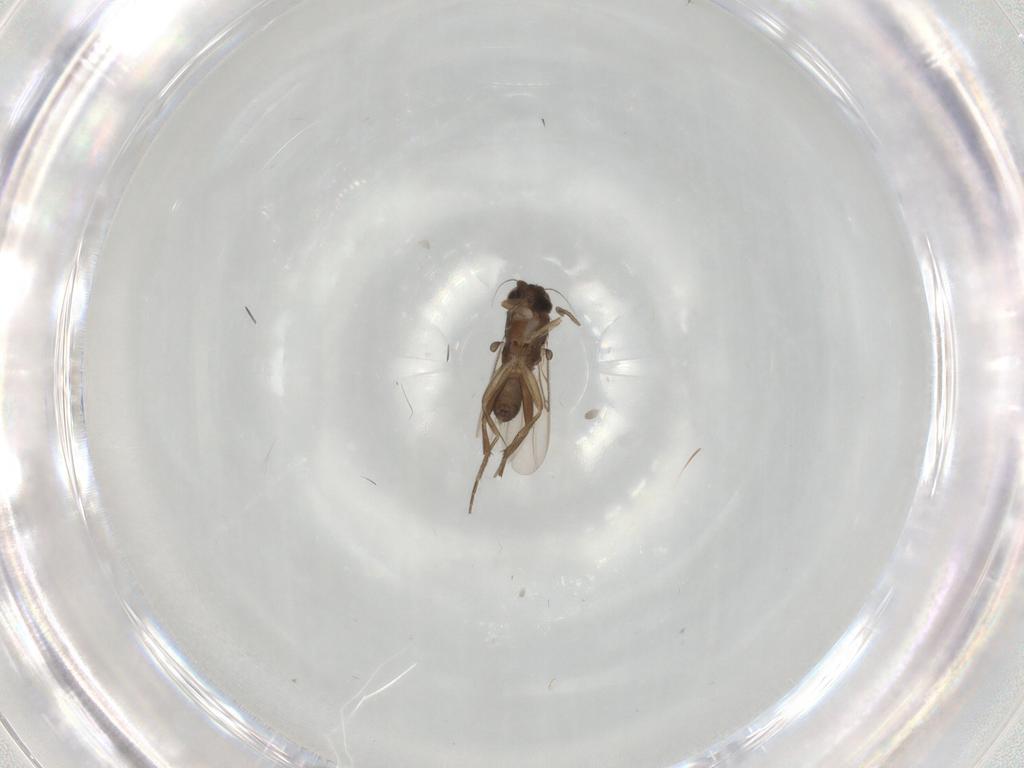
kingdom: Animalia
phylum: Arthropoda
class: Insecta
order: Diptera
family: Phoridae
